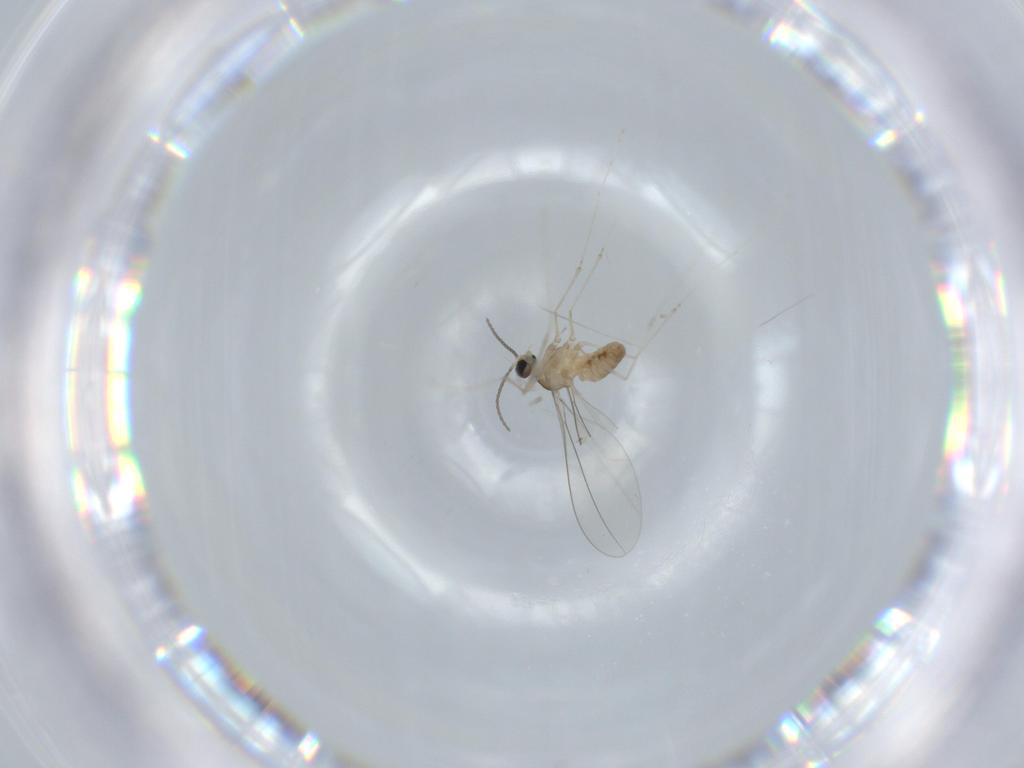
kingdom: Animalia
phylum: Arthropoda
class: Insecta
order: Diptera
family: Cecidomyiidae
